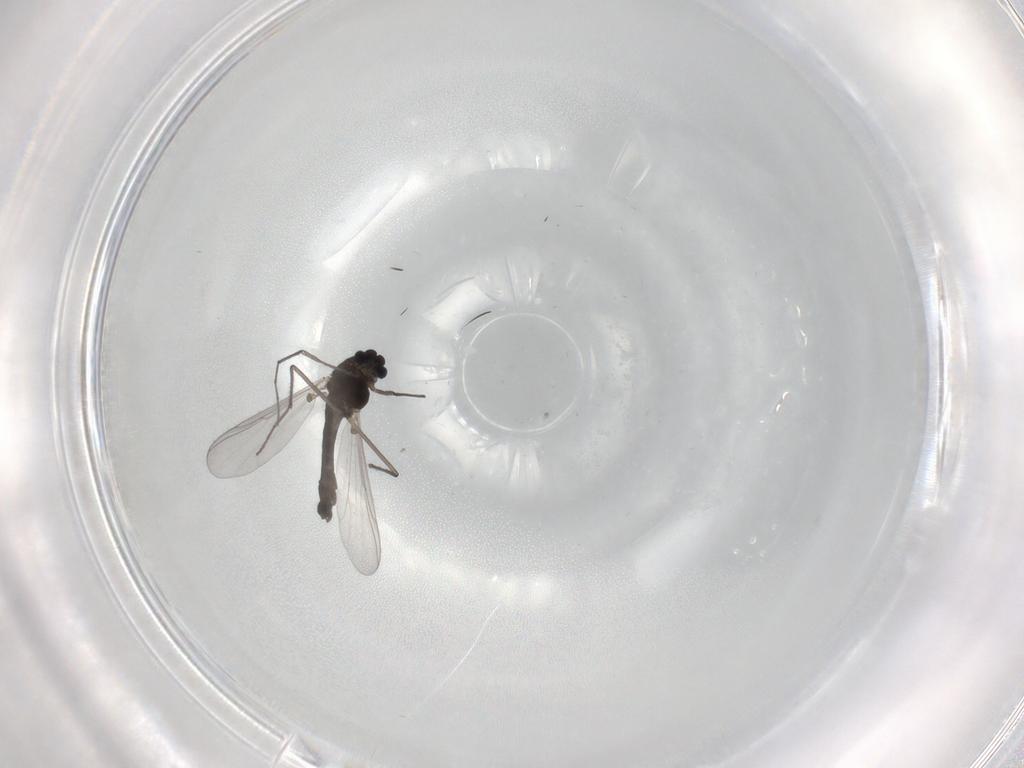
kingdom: Animalia
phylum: Arthropoda
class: Insecta
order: Diptera
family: Chironomidae
